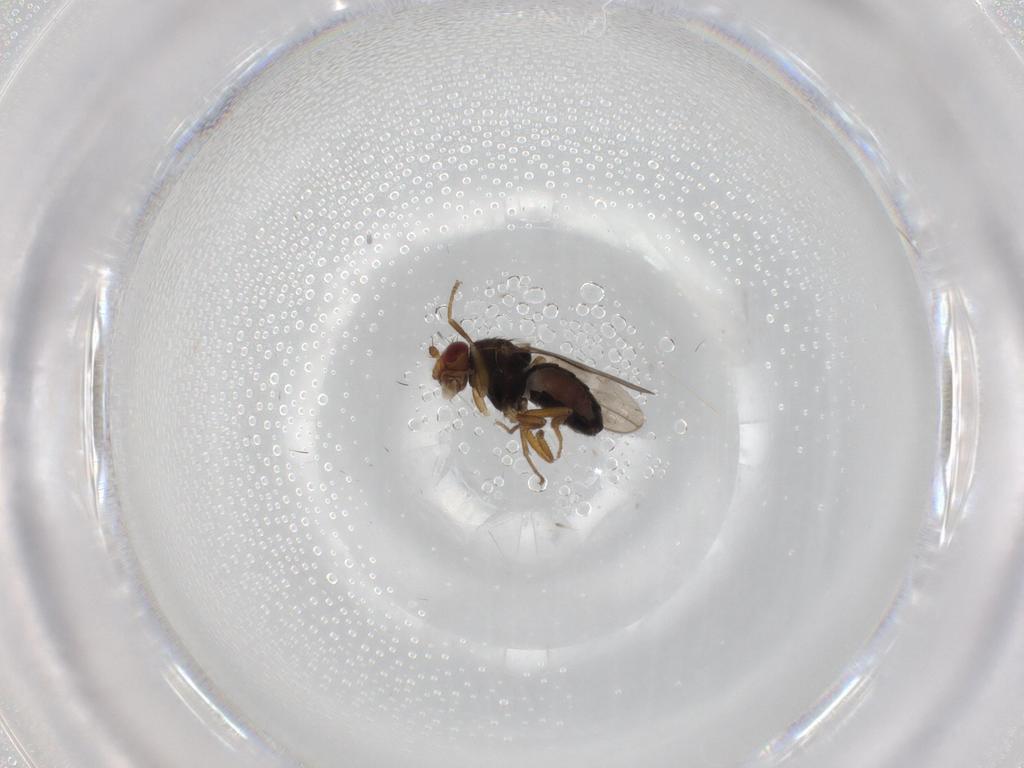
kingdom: Animalia
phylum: Arthropoda
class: Insecta
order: Diptera
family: Sphaeroceridae
